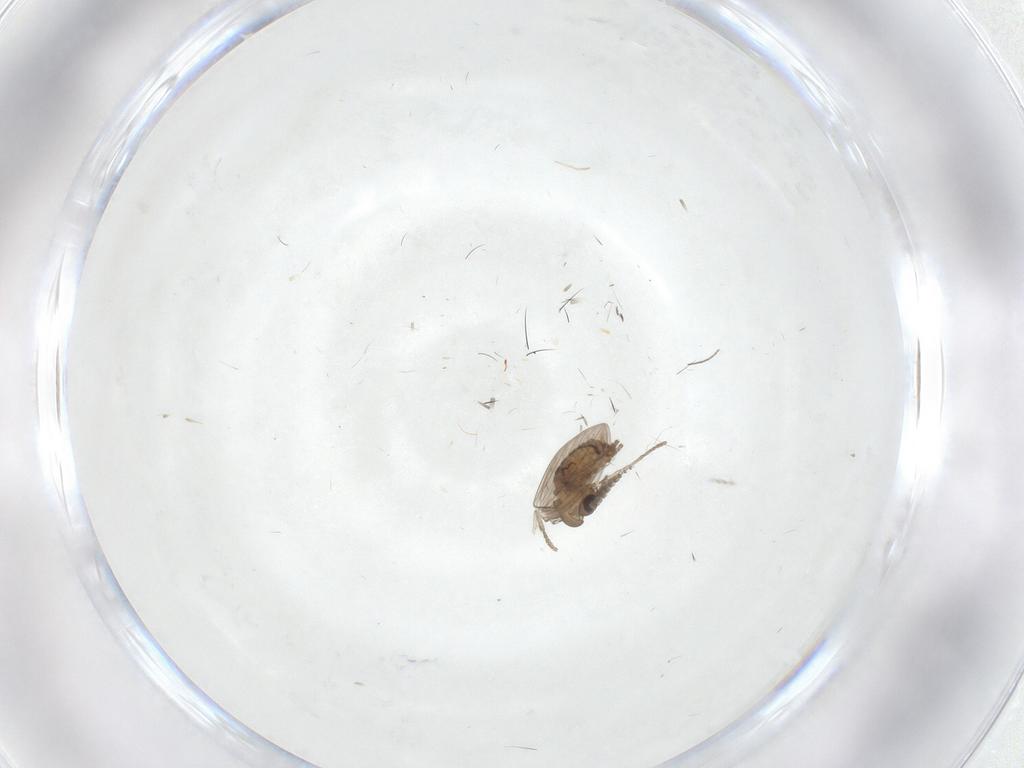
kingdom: Animalia
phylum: Arthropoda
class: Insecta
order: Diptera
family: Psychodidae
